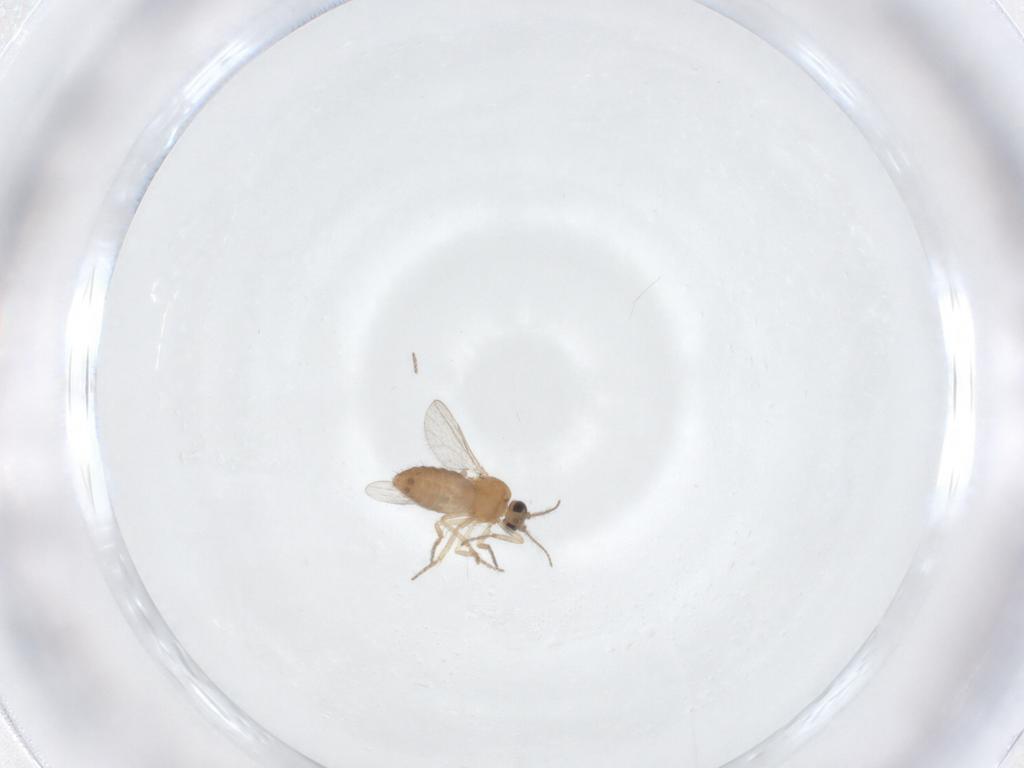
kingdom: Animalia
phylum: Arthropoda
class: Insecta
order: Diptera
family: Ceratopogonidae
